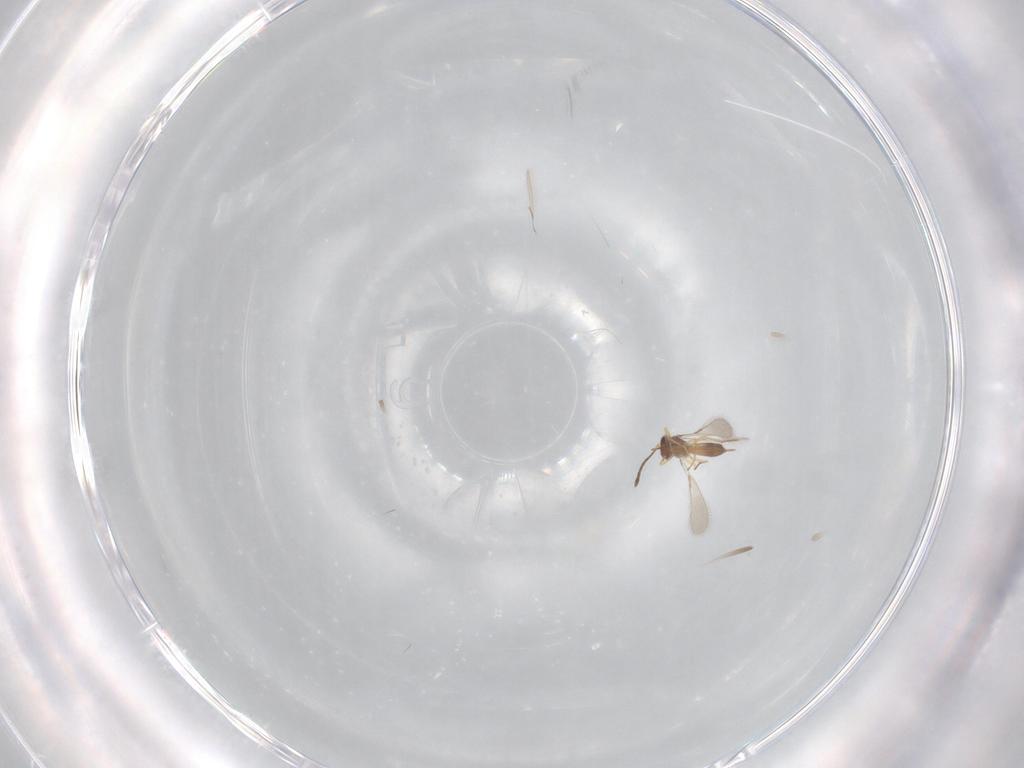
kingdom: Animalia
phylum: Arthropoda
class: Insecta
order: Hymenoptera
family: Mymaridae
